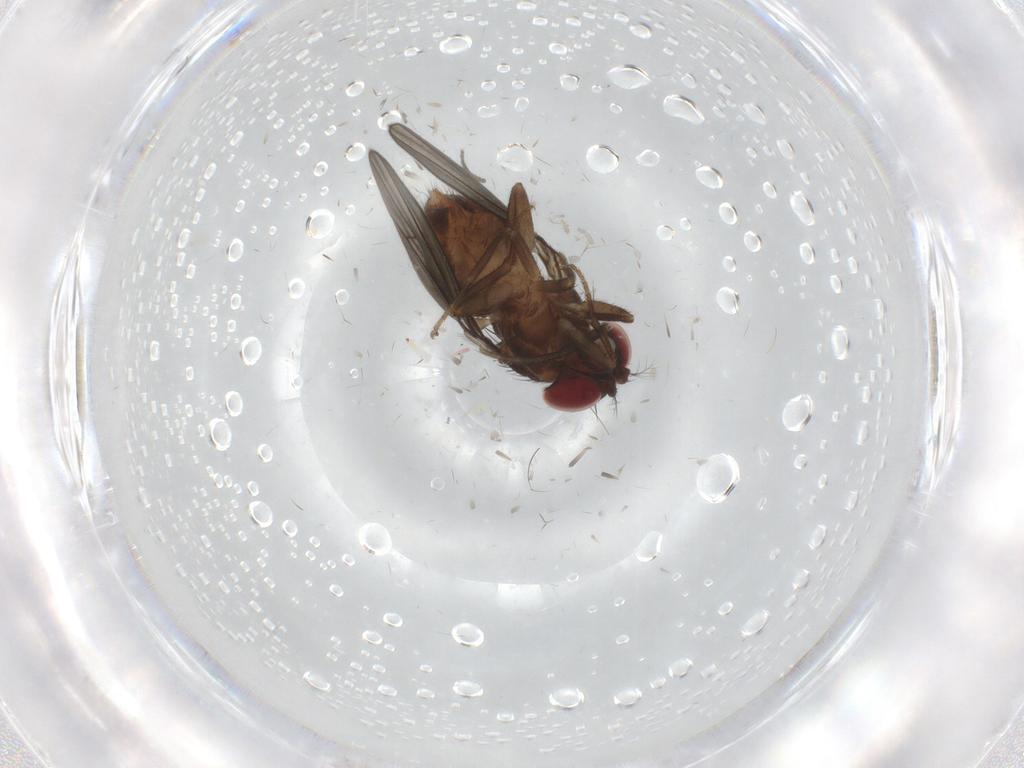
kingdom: Animalia
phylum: Arthropoda
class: Insecta
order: Diptera
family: Drosophilidae
